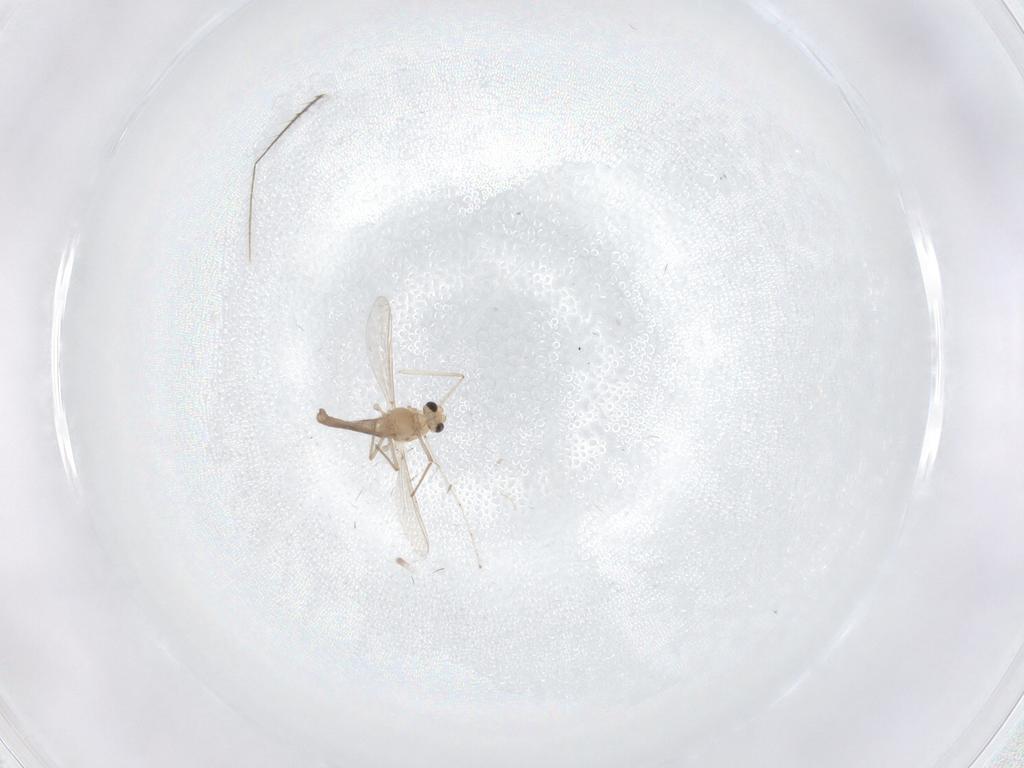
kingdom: Animalia
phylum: Arthropoda
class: Insecta
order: Diptera
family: Chironomidae
